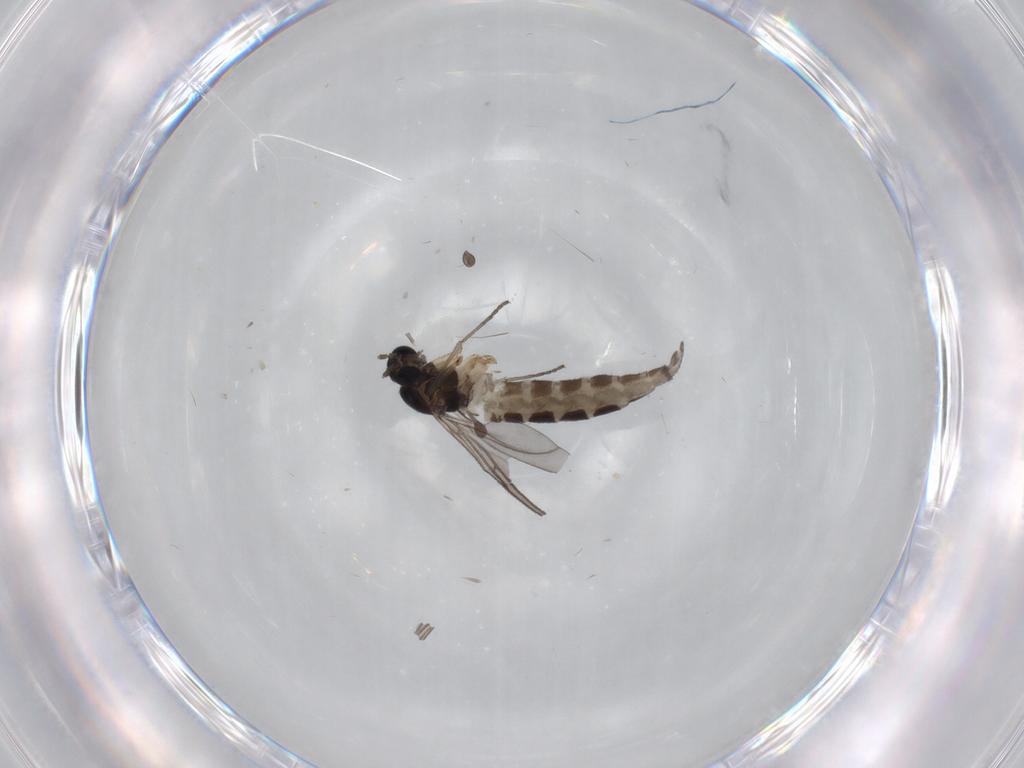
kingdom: Animalia
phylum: Arthropoda
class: Insecta
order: Diptera
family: Sciaridae
